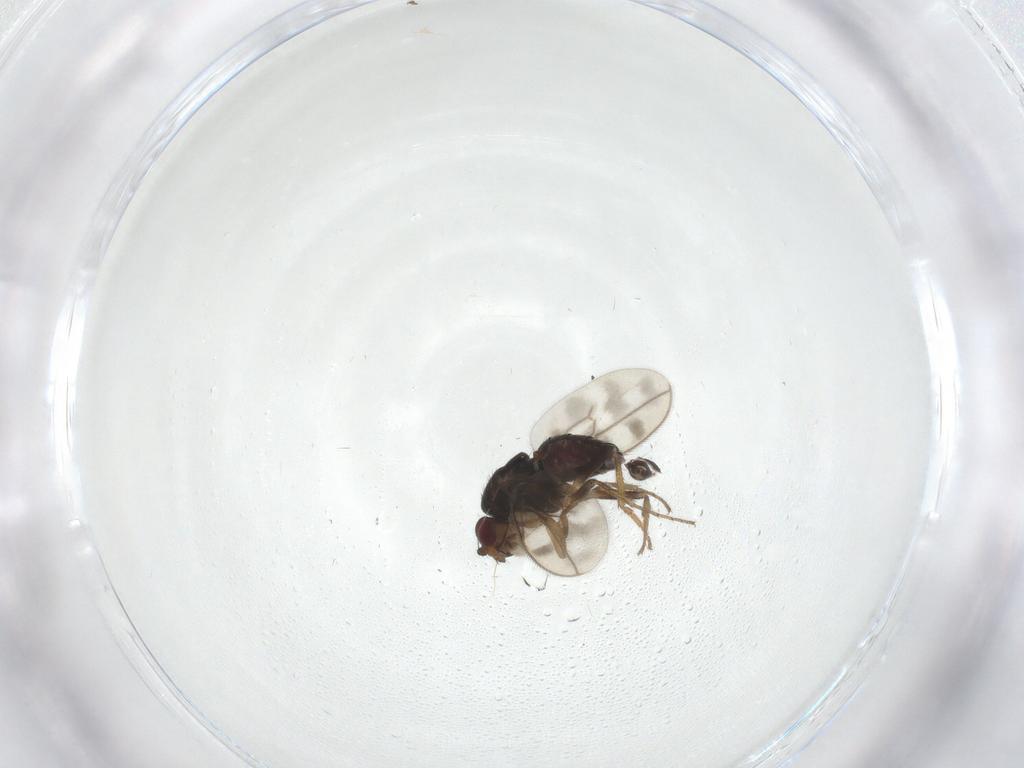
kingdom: Animalia
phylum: Arthropoda
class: Insecta
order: Diptera
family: Sphaeroceridae
